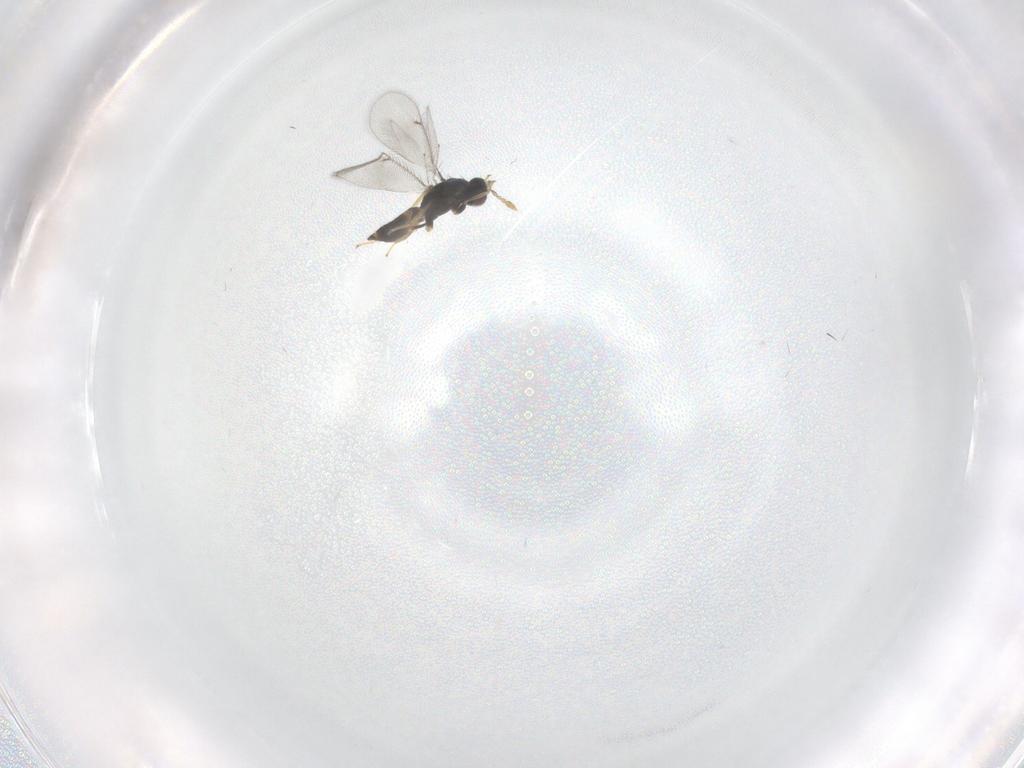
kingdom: Animalia
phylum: Arthropoda
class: Insecta
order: Hymenoptera
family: Eulophidae
